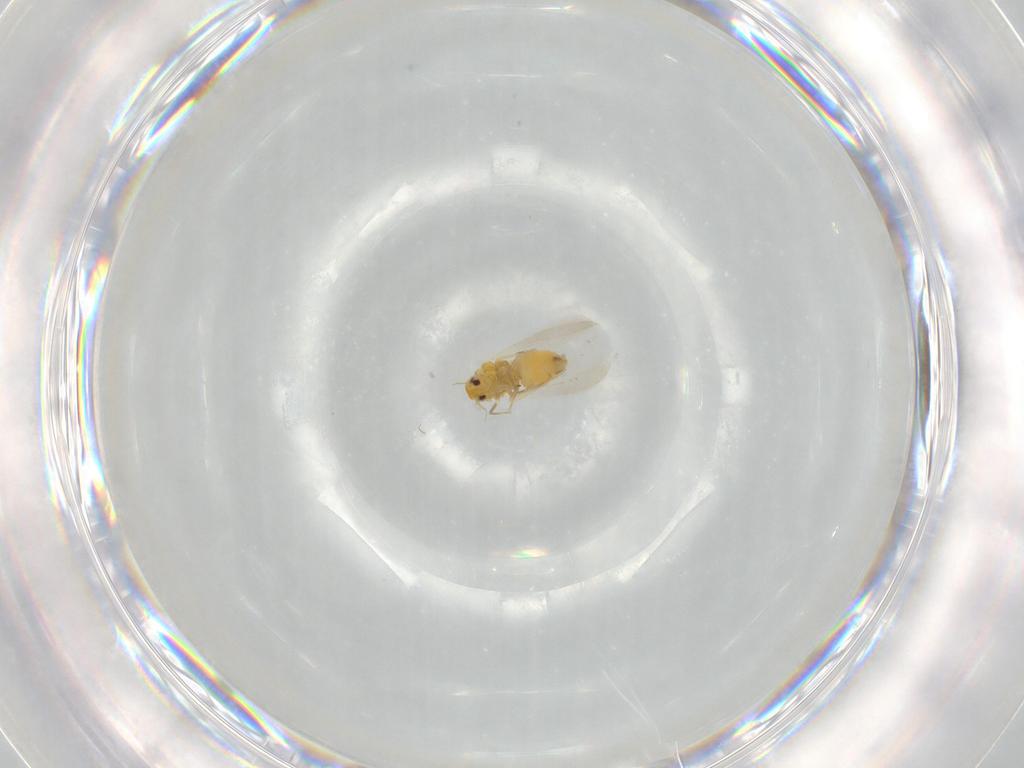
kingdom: Animalia
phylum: Arthropoda
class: Insecta
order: Hemiptera
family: Aleyrodidae
